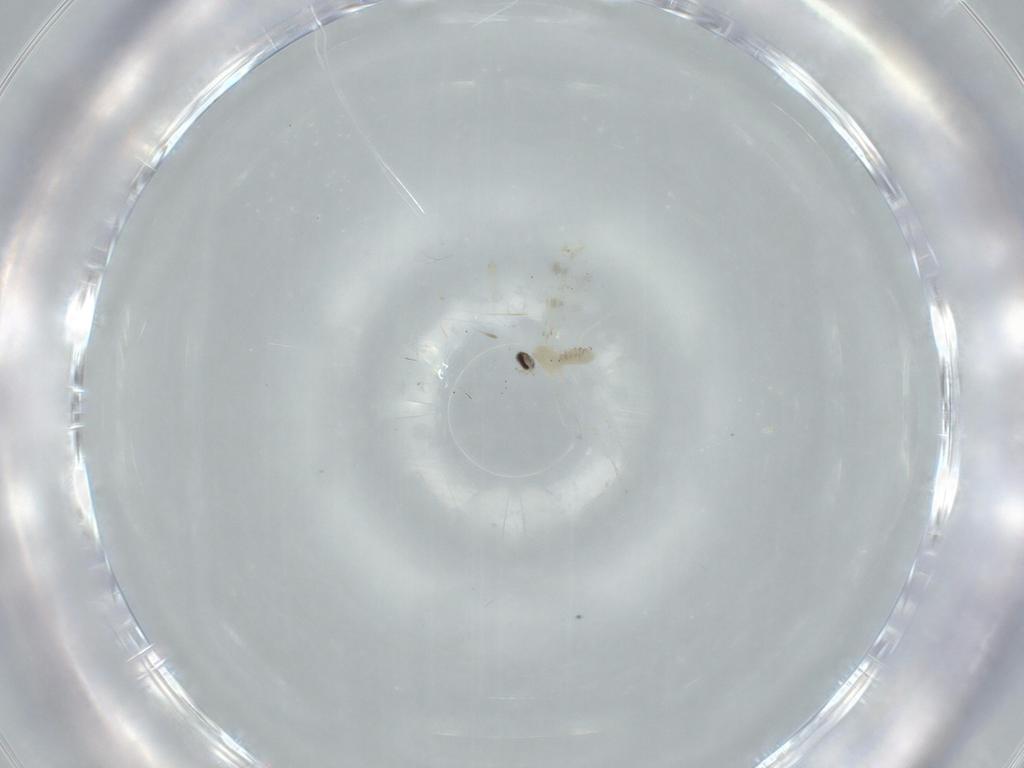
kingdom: Animalia
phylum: Arthropoda
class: Insecta
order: Diptera
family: Cecidomyiidae
